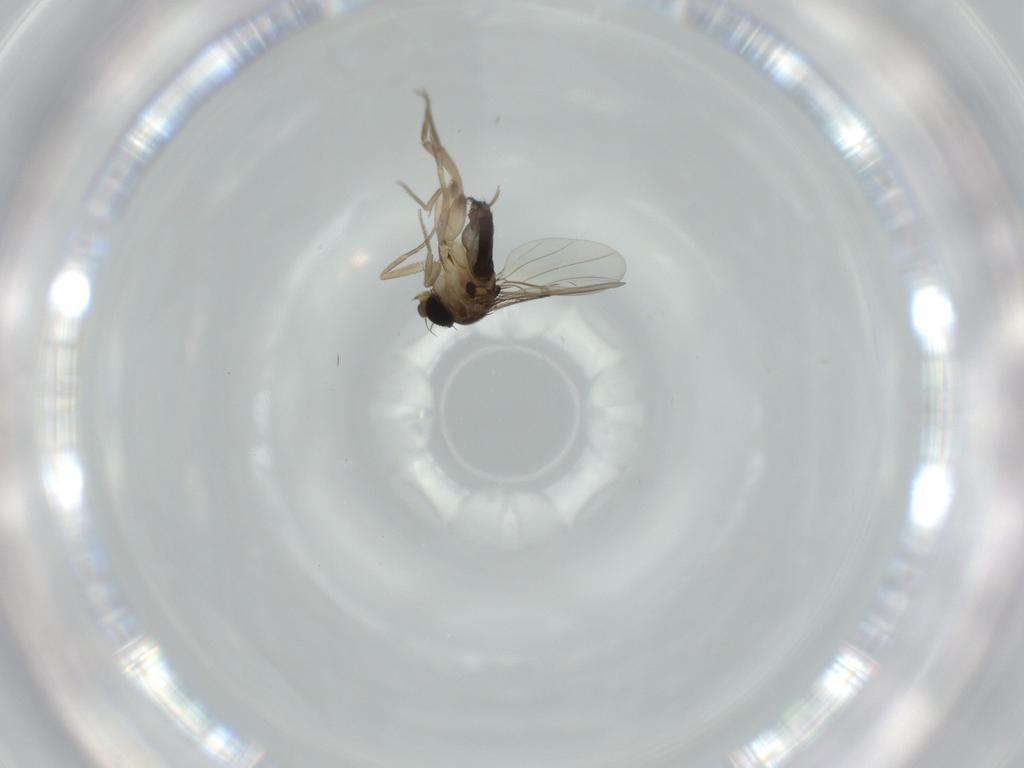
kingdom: Animalia
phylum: Arthropoda
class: Insecta
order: Diptera
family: Phoridae
